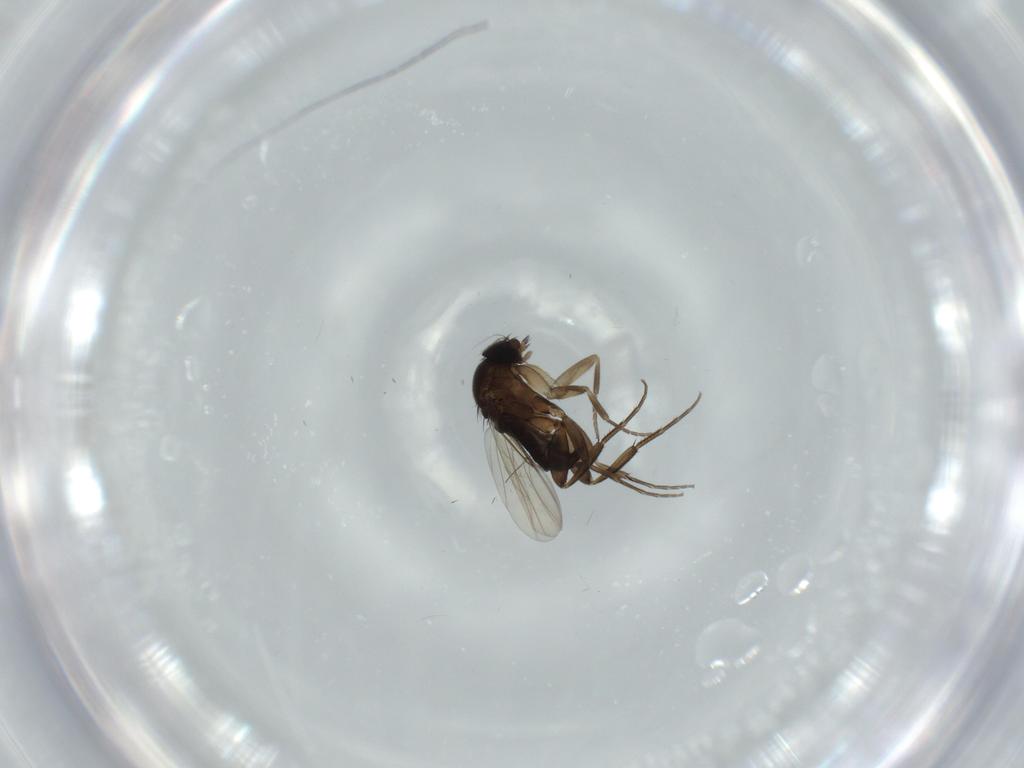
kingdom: Animalia
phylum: Arthropoda
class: Insecta
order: Diptera
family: Phoridae
